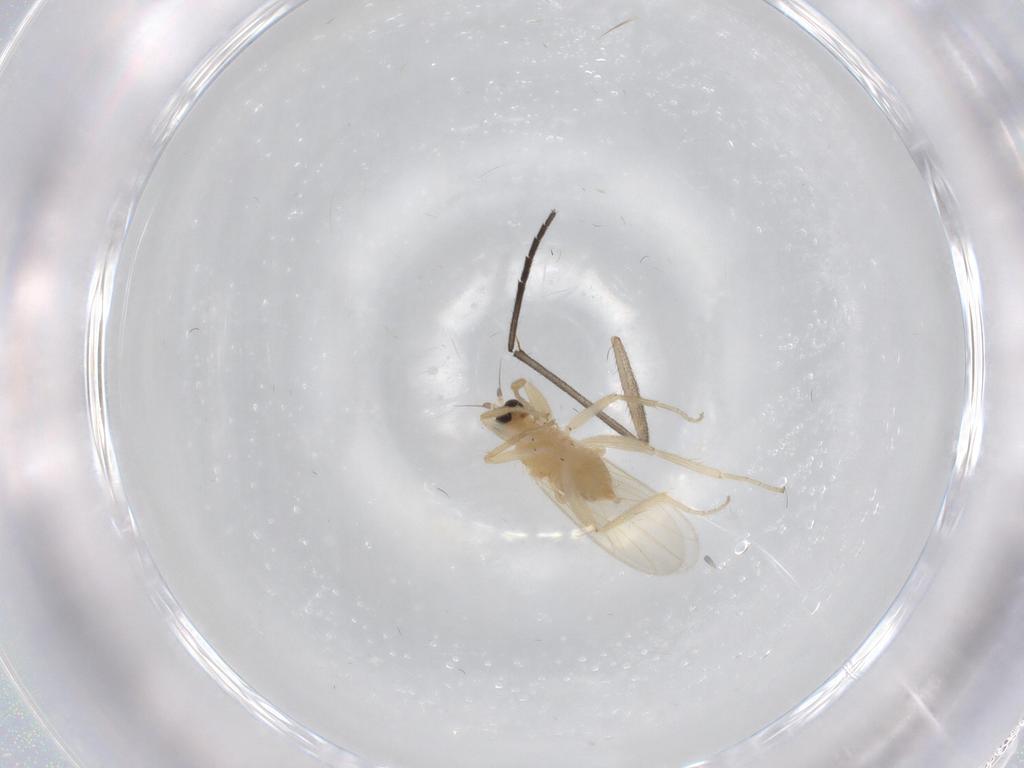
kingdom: Animalia
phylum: Arthropoda
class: Insecta
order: Diptera
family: Hybotidae
